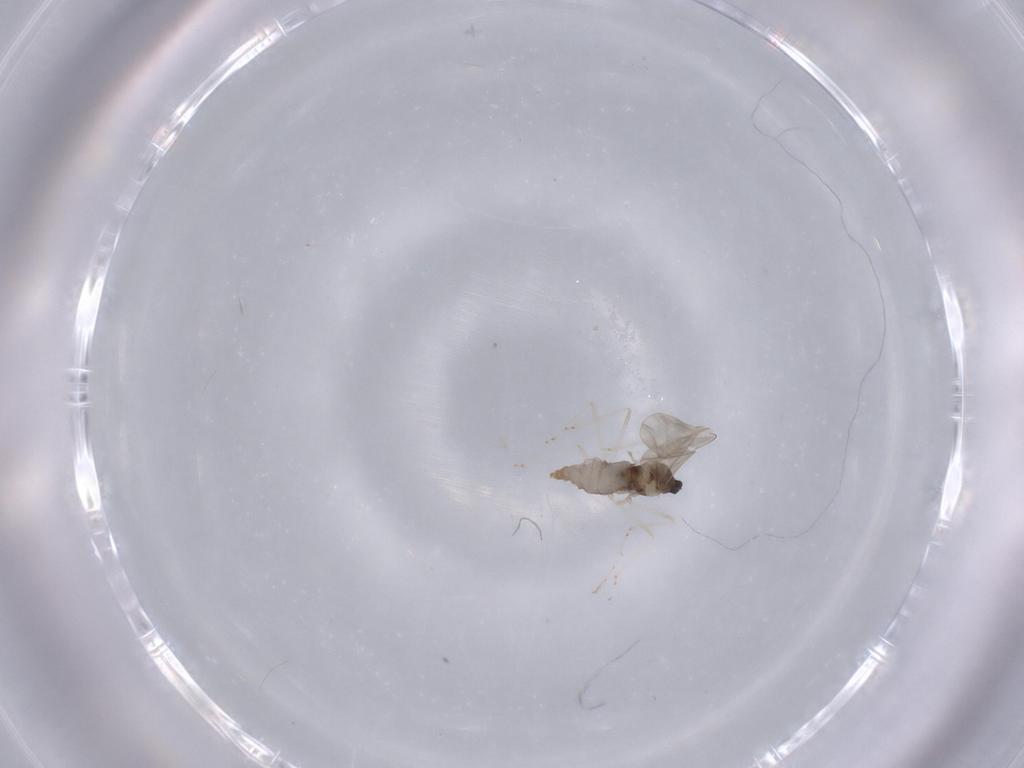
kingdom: Animalia
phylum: Arthropoda
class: Insecta
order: Diptera
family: Cecidomyiidae
